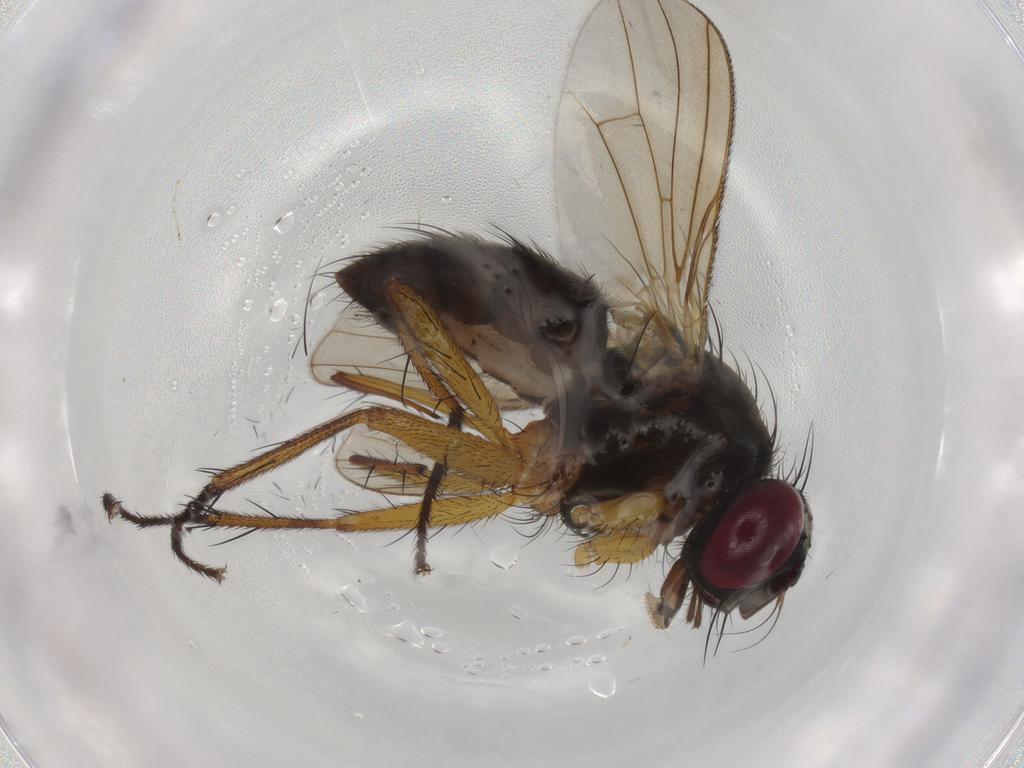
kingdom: Animalia
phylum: Arthropoda
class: Insecta
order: Diptera
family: Muscidae
